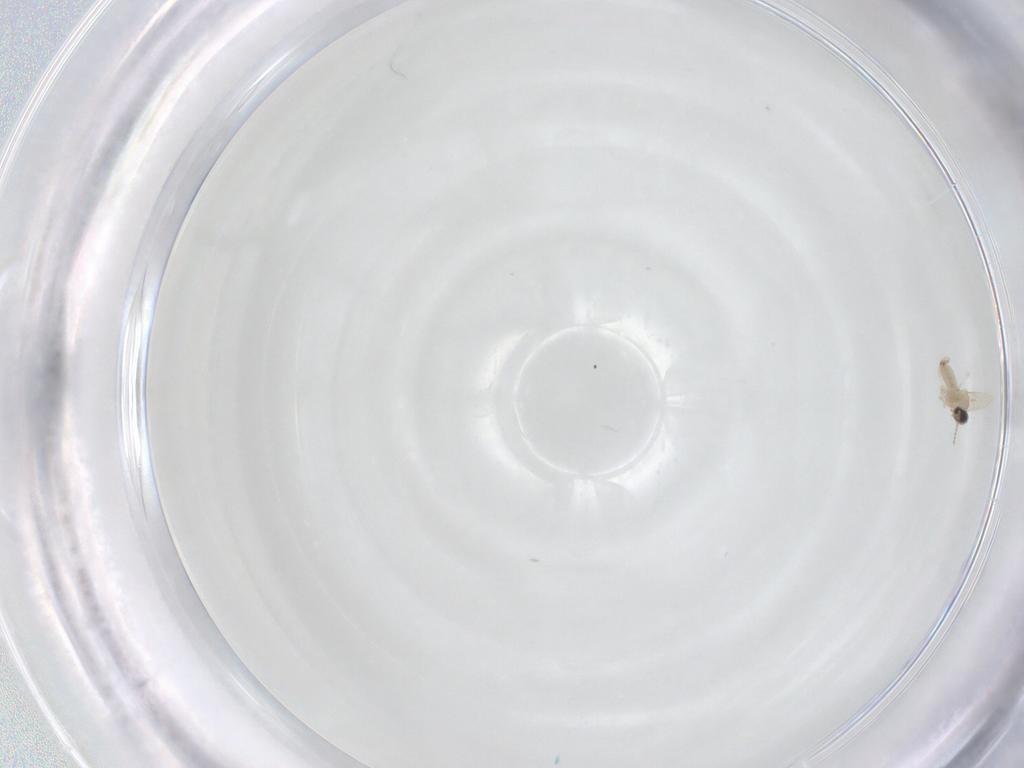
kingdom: Animalia
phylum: Arthropoda
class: Insecta
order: Diptera
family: Cecidomyiidae
